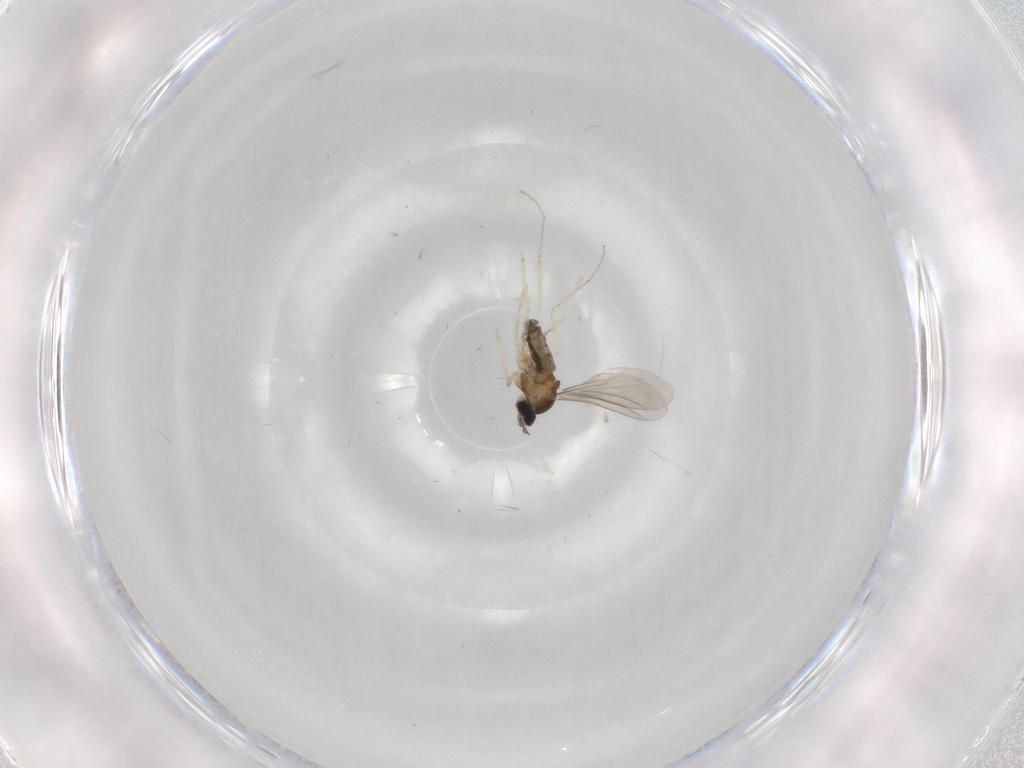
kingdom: Animalia
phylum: Arthropoda
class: Insecta
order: Diptera
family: Cecidomyiidae
